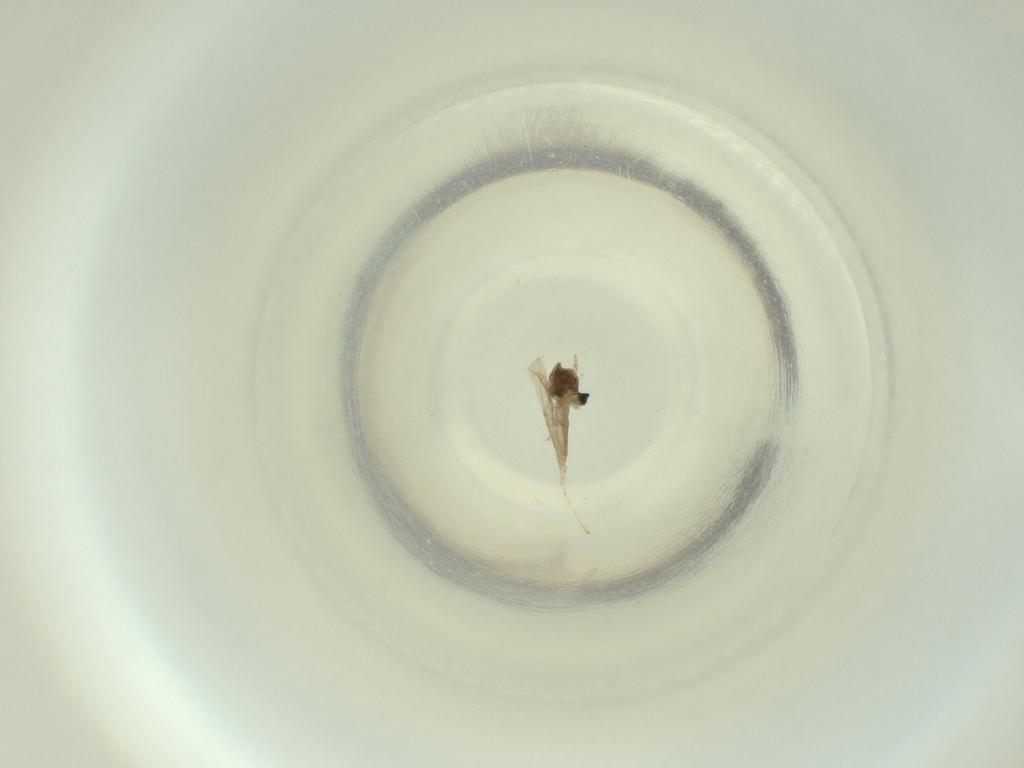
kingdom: Animalia
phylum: Arthropoda
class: Insecta
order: Diptera
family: Cecidomyiidae
